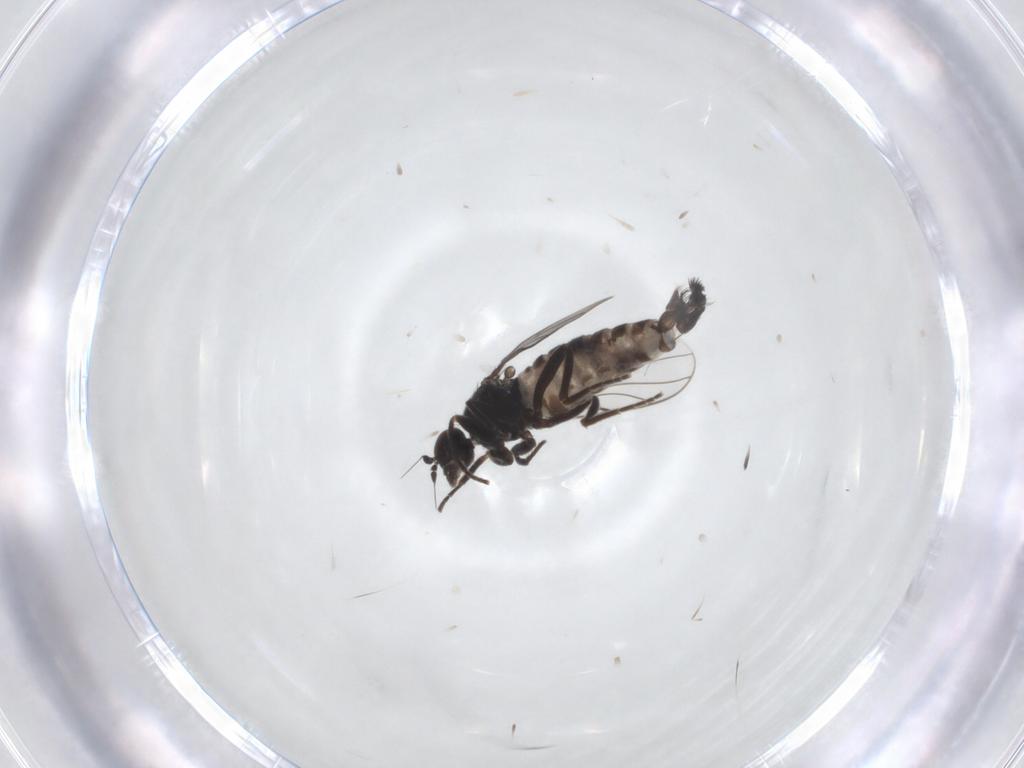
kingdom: Animalia
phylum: Arthropoda
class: Insecta
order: Diptera
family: Hybotidae
